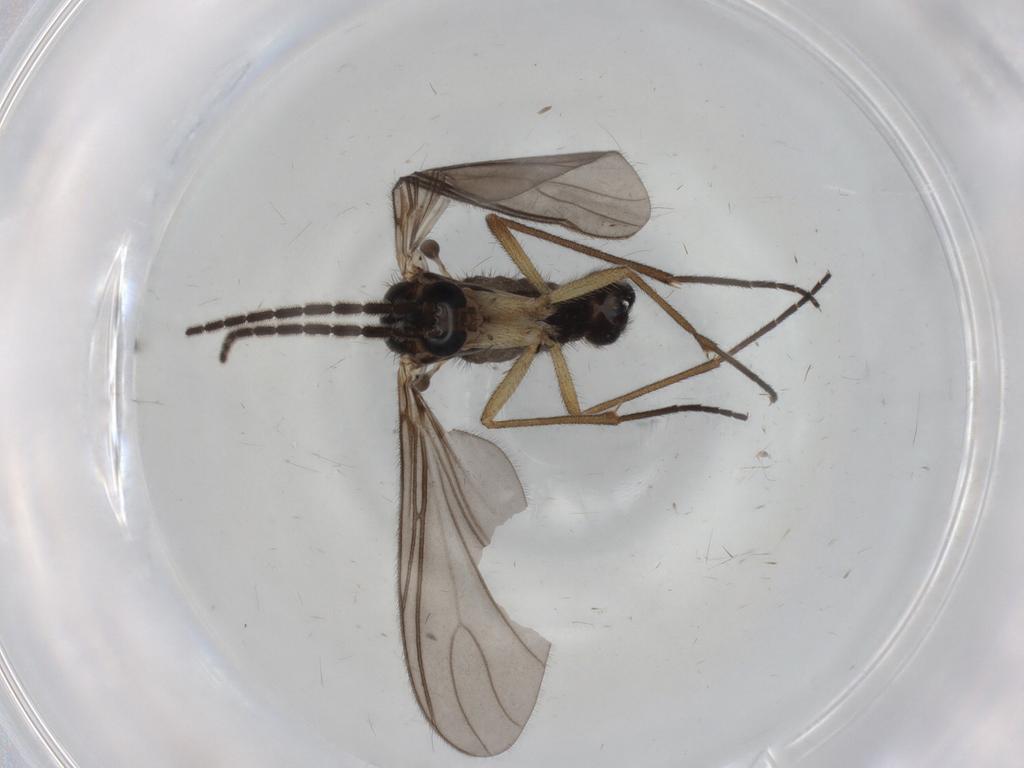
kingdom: Animalia
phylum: Arthropoda
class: Insecta
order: Diptera
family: Sciaridae
